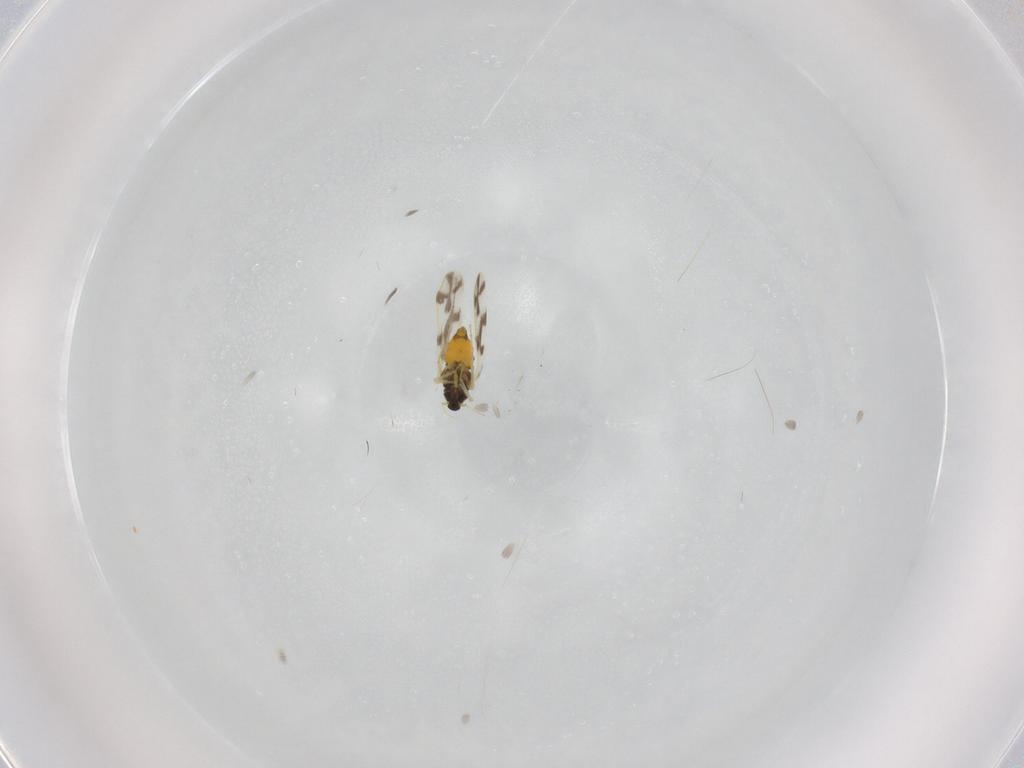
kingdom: Animalia
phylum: Arthropoda
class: Insecta
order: Hemiptera
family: Aleyrodidae
